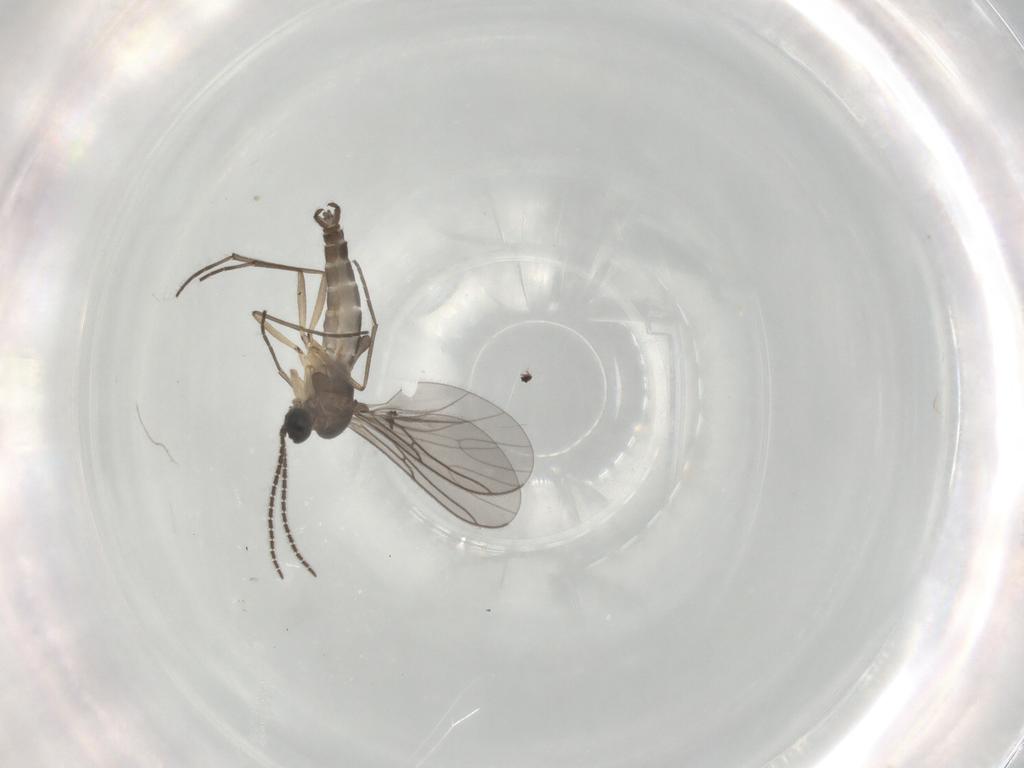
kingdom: Animalia
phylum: Arthropoda
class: Insecta
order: Diptera
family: Sciaridae
